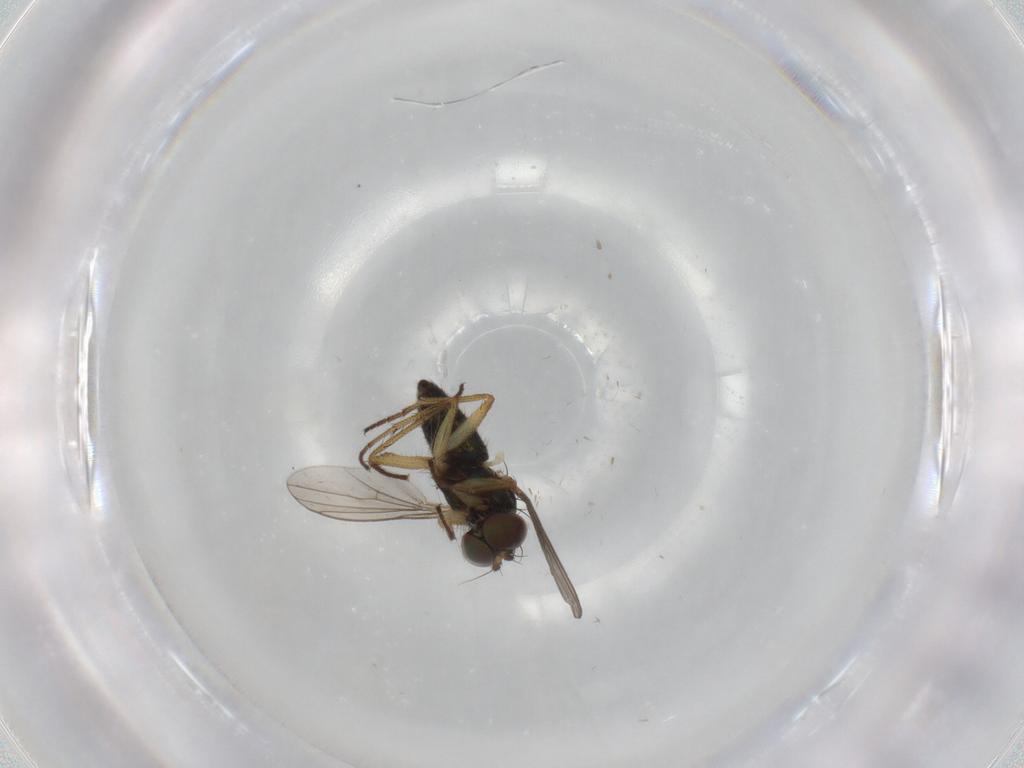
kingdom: Animalia
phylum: Arthropoda
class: Insecta
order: Diptera
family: Dolichopodidae
